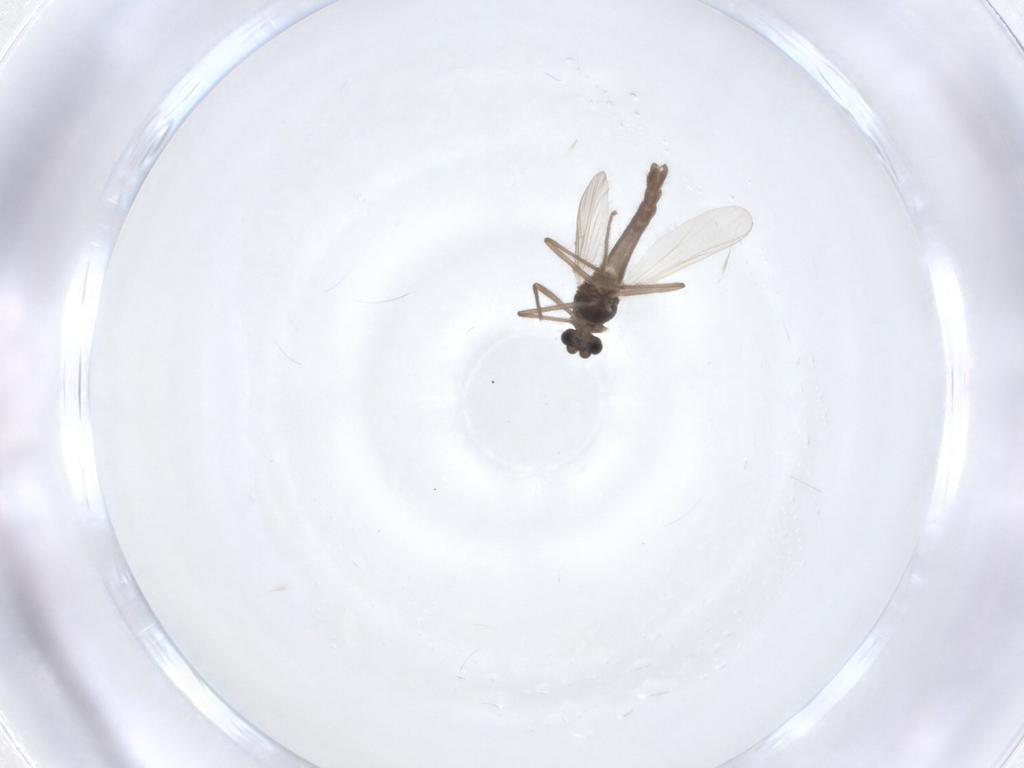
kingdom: Animalia
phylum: Arthropoda
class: Insecta
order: Diptera
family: Chironomidae
